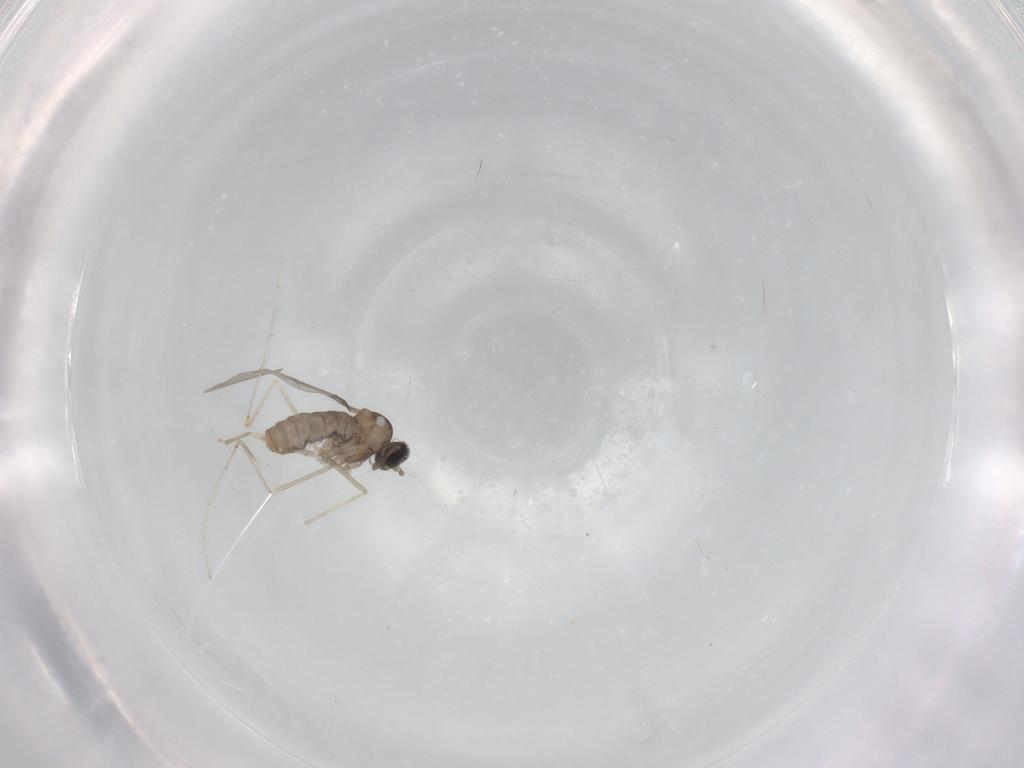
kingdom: Animalia
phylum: Arthropoda
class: Insecta
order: Diptera
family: Cecidomyiidae
